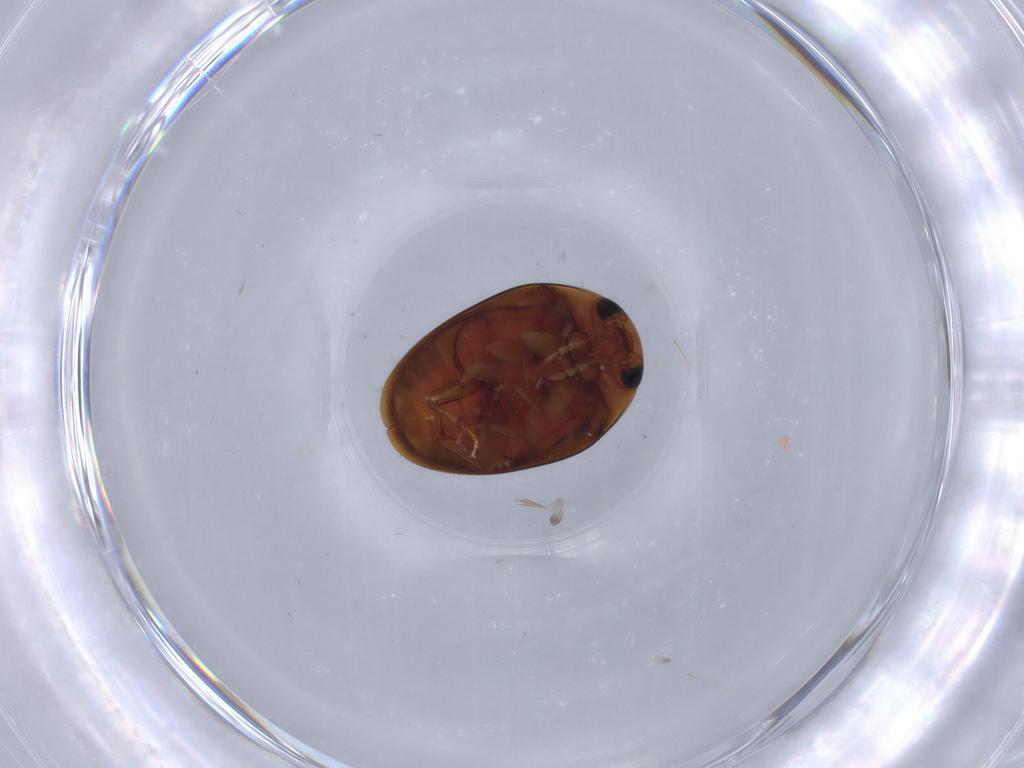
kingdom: Animalia
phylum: Arthropoda
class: Insecta
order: Coleoptera
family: Phalacridae
